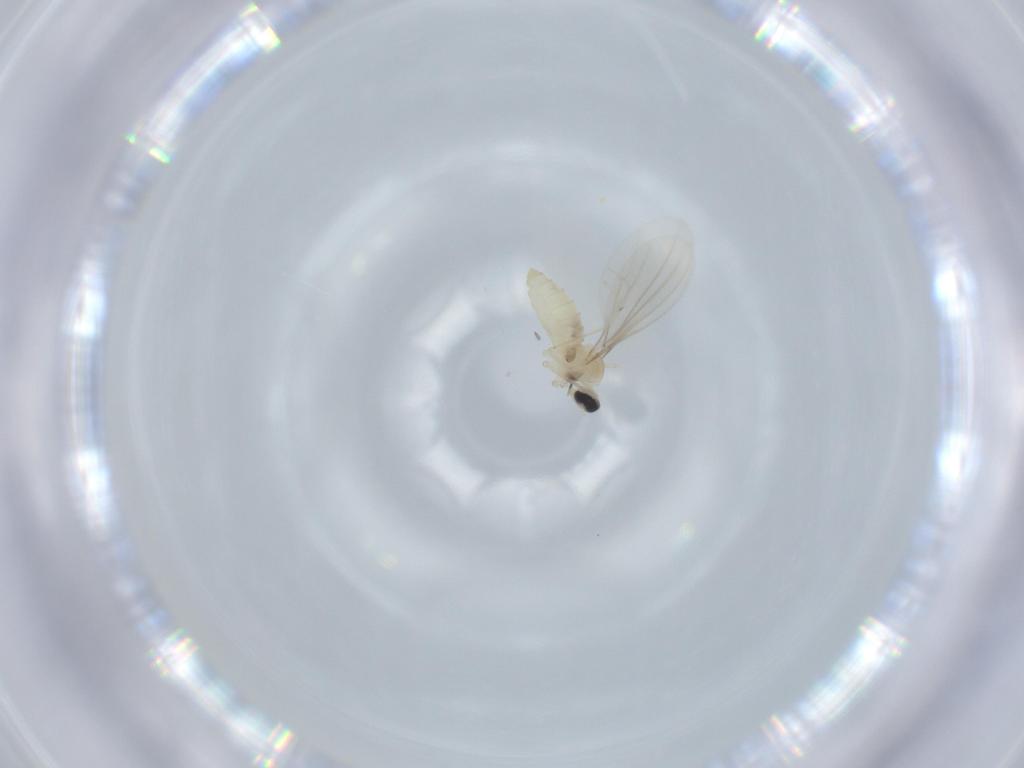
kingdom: Animalia
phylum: Arthropoda
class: Insecta
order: Diptera
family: Cecidomyiidae
